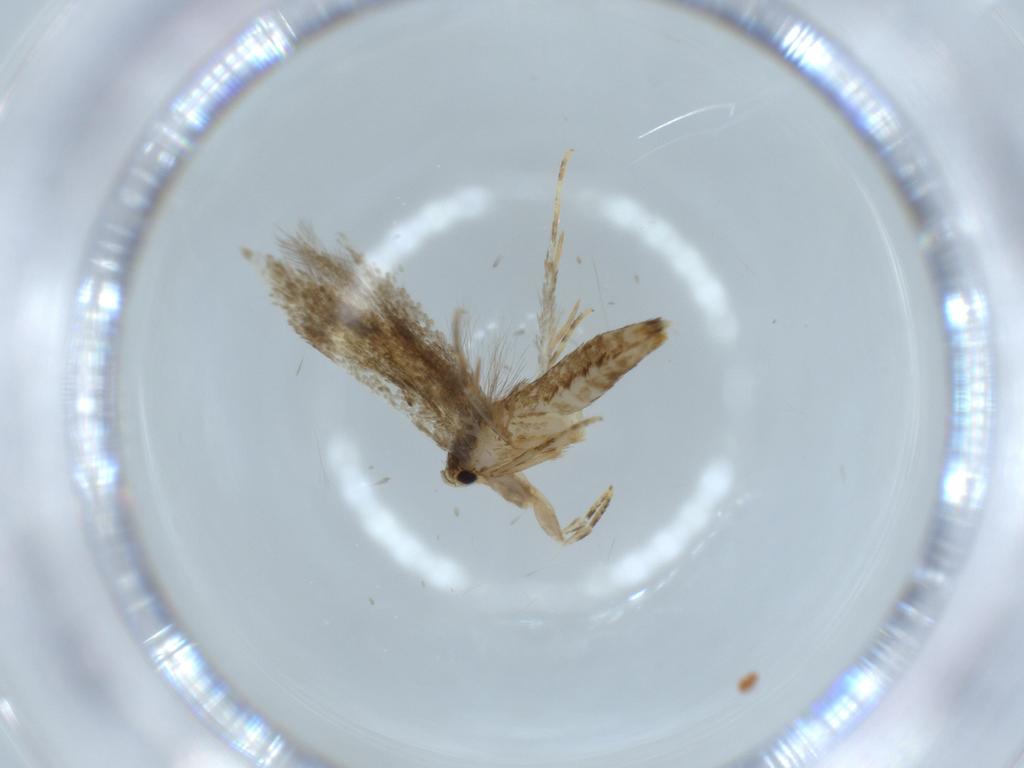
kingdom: Animalia
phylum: Arthropoda
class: Insecta
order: Lepidoptera
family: Tineidae
